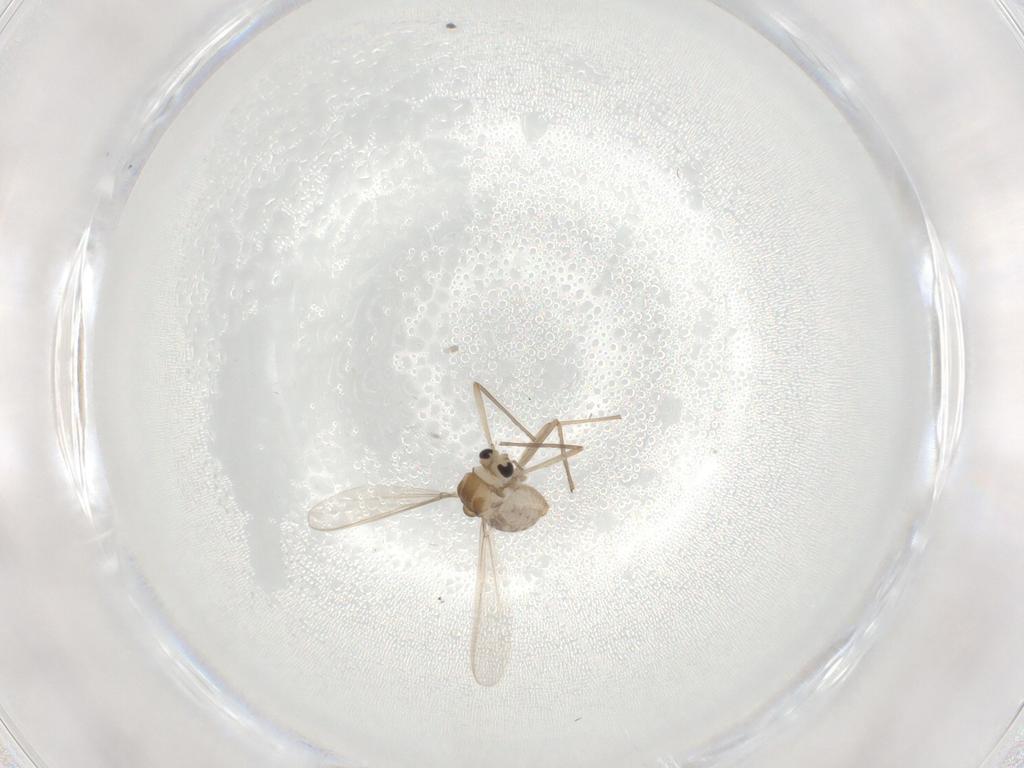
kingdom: Animalia
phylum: Arthropoda
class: Insecta
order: Diptera
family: Chironomidae
